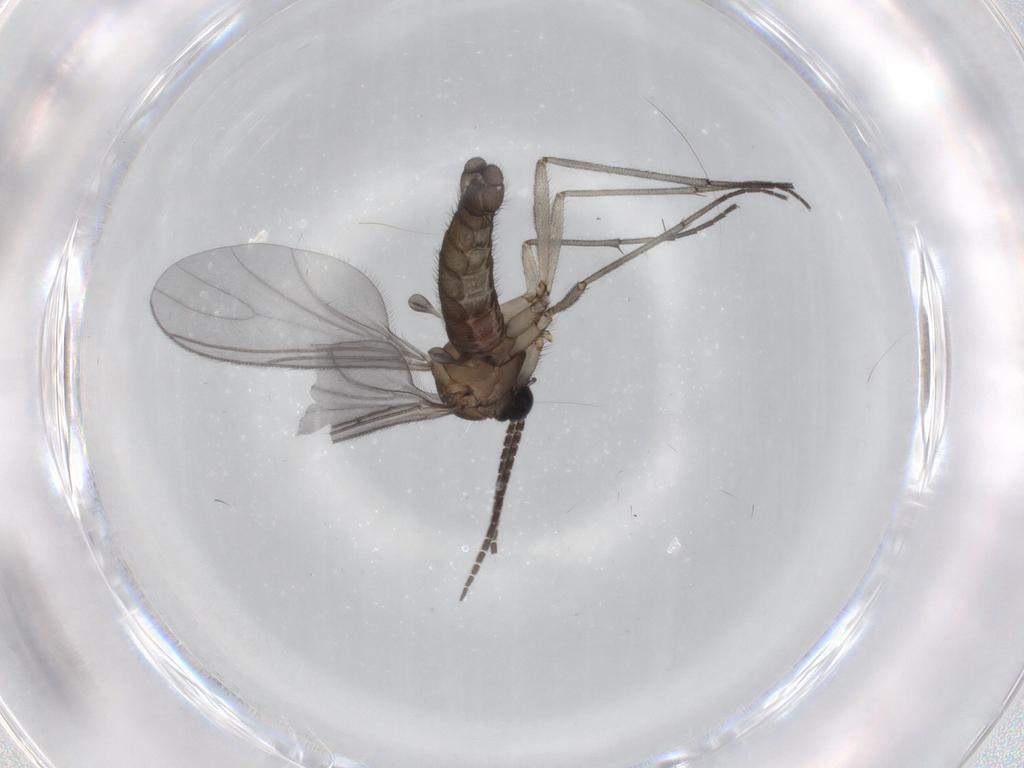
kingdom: Animalia
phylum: Arthropoda
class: Insecta
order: Diptera
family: Sciaridae
